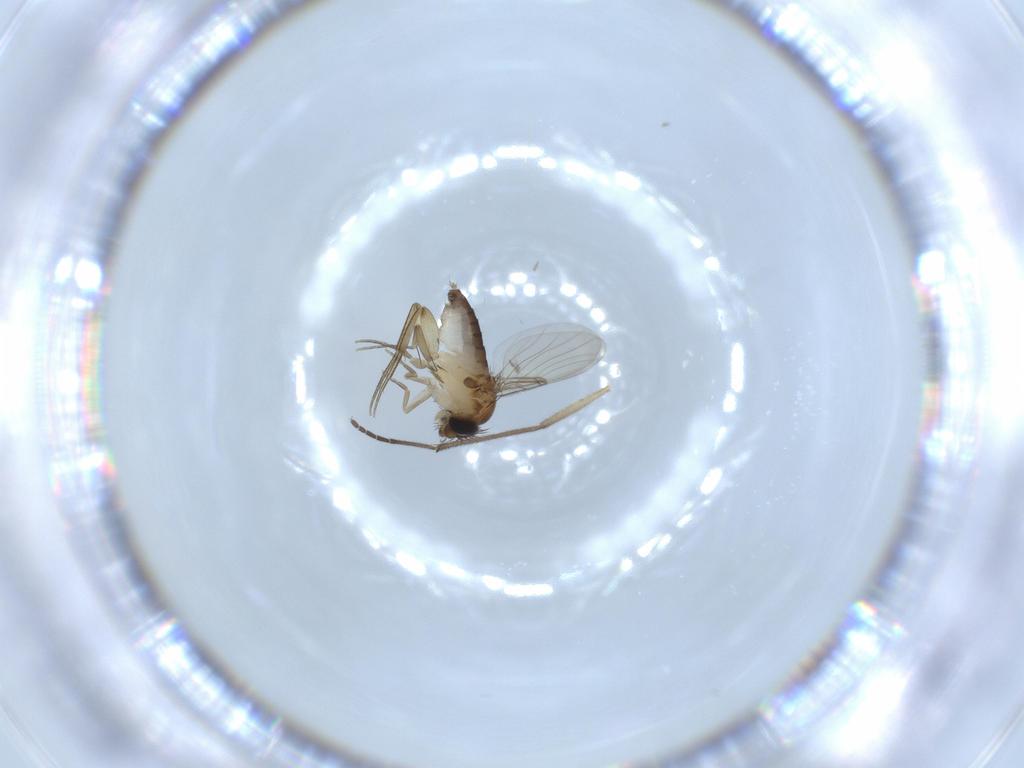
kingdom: Animalia
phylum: Arthropoda
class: Insecta
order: Diptera
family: Phoridae
